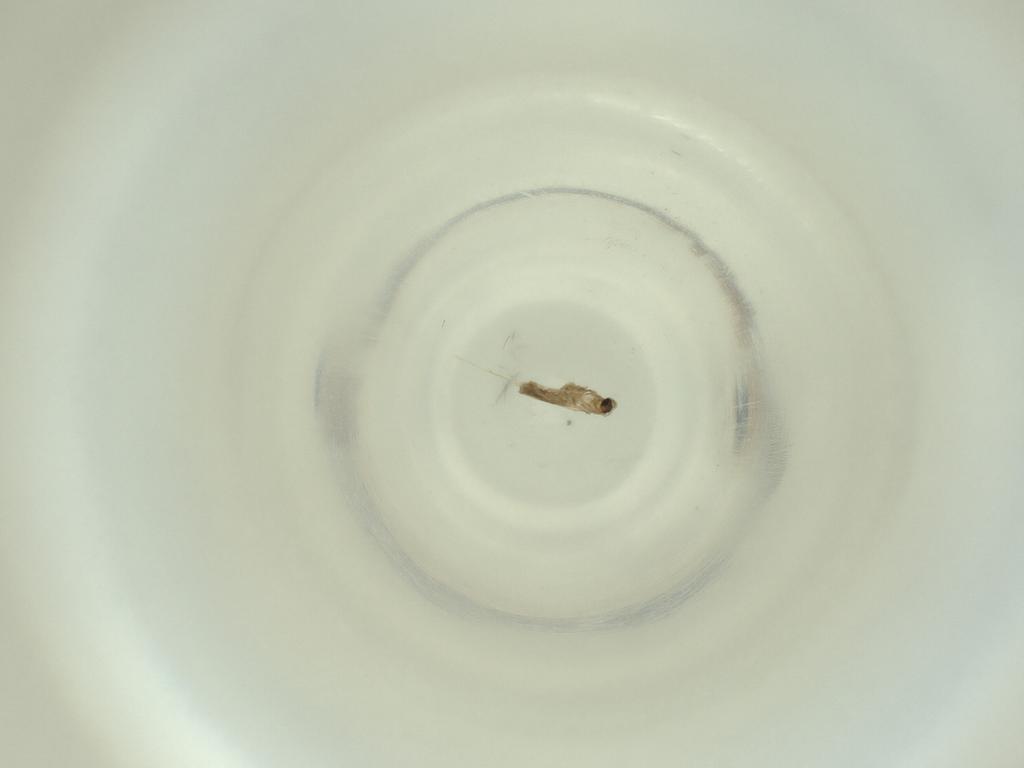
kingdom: Animalia
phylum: Arthropoda
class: Insecta
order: Diptera
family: Cecidomyiidae
